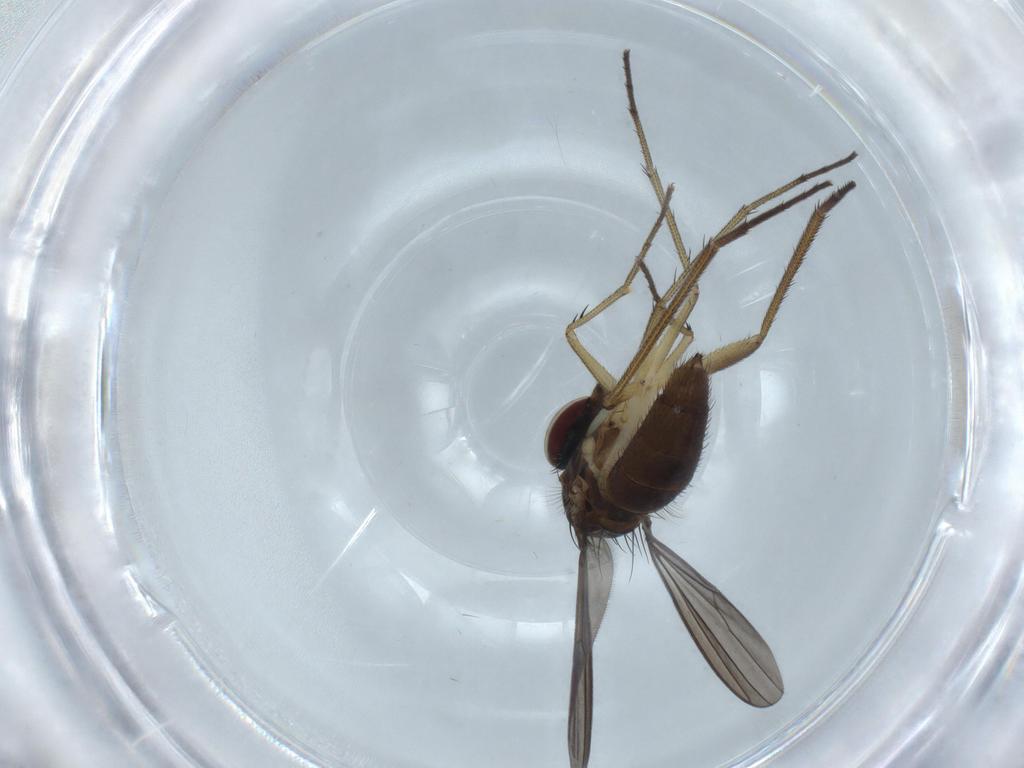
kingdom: Animalia
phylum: Arthropoda
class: Insecta
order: Diptera
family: Dolichopodidae
